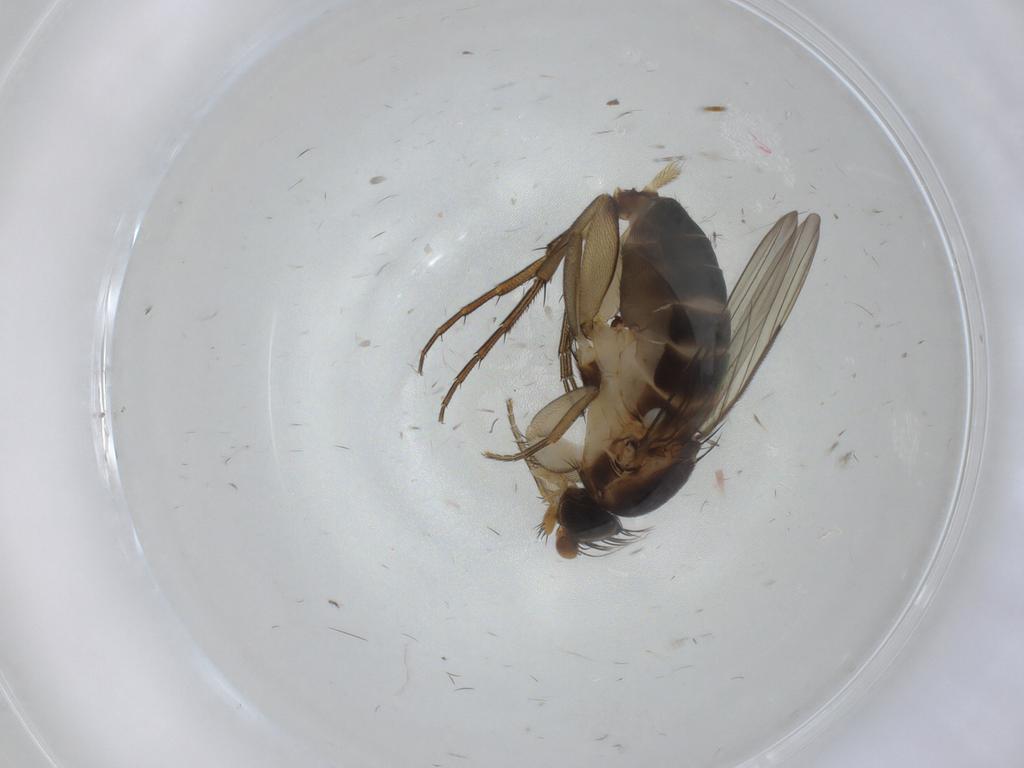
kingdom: Animalia
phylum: Arthropoda
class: Insecta
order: Diptera
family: Phoridae
